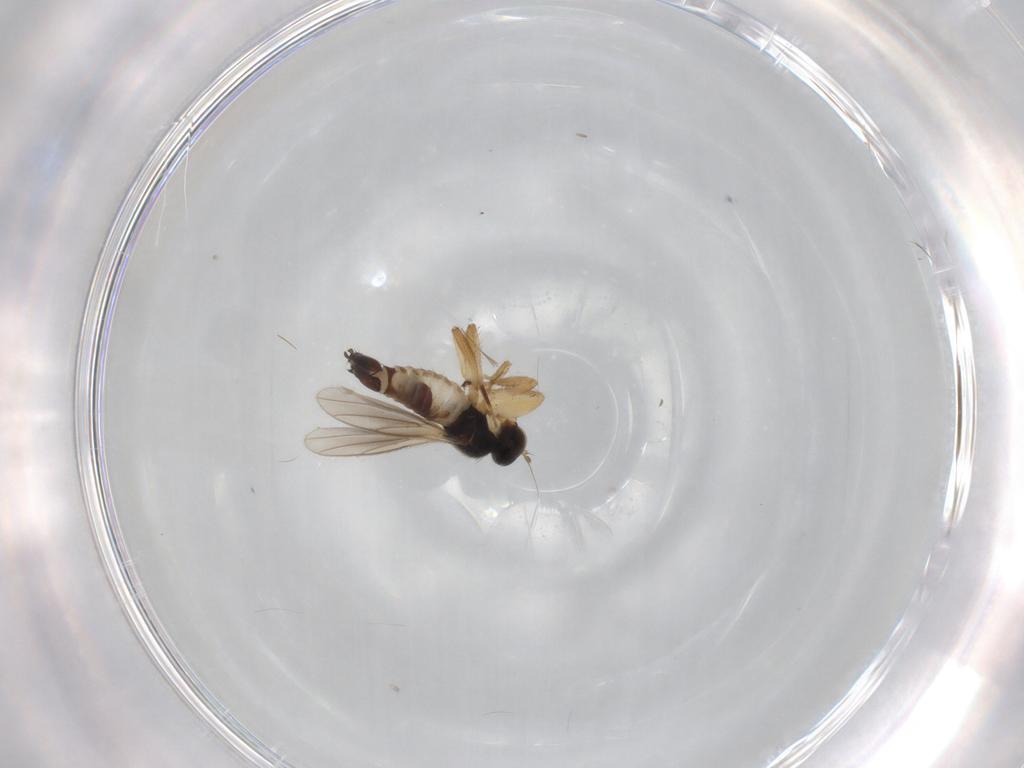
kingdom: Animalia
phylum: Arthropoda
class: Insecta
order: Diptera
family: Hybotidae
